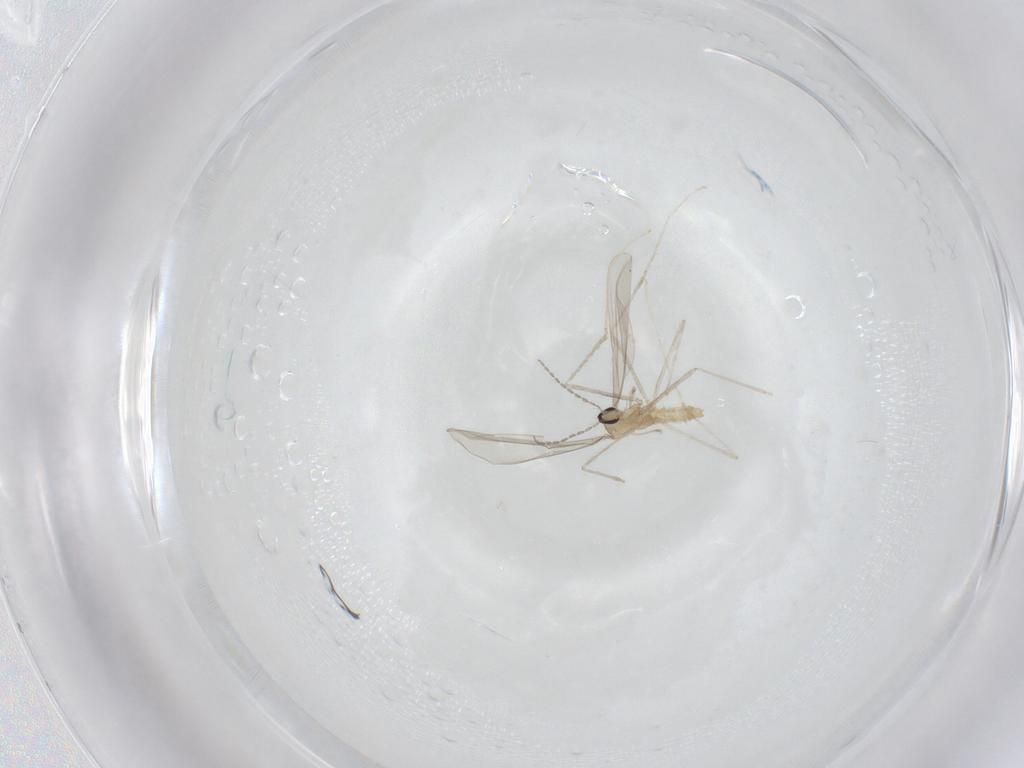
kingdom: Animalia
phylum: Arthropoda
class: Insecta
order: Diptera
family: Cecidomyiidae
